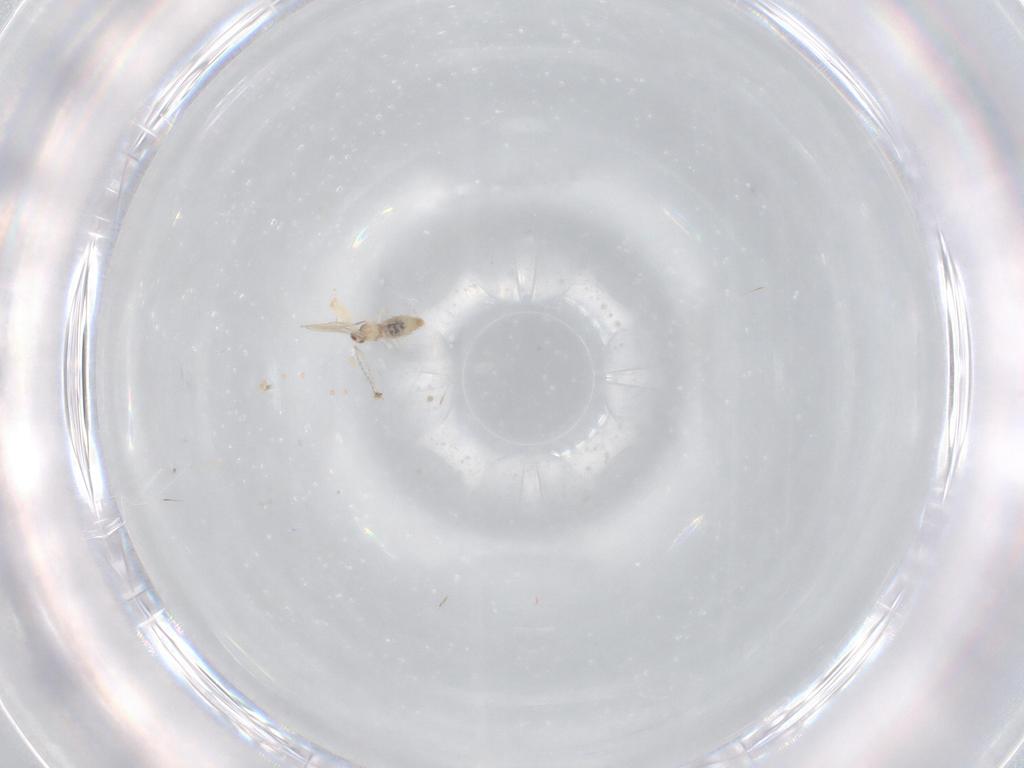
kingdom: Animalia
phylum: Arthropoda
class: Insecta
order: Diptera
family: Cecidomyiidae
